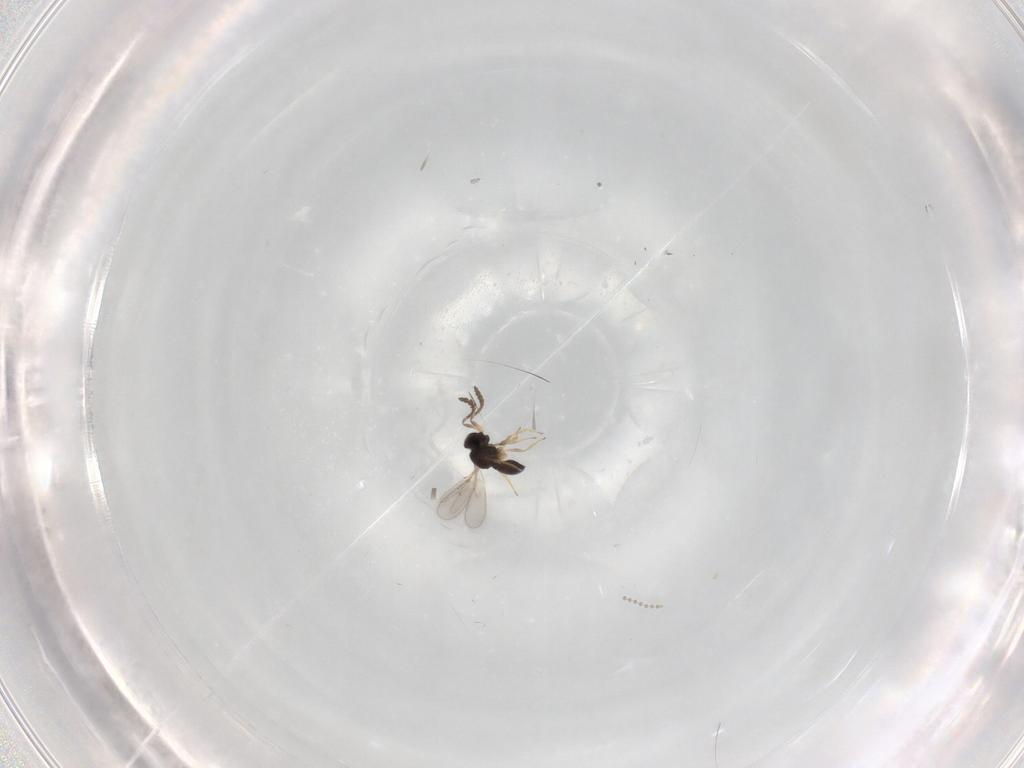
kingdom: Animalia
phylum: Arthropoda
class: Insecta
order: Hymenoptera
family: Scelionidae
